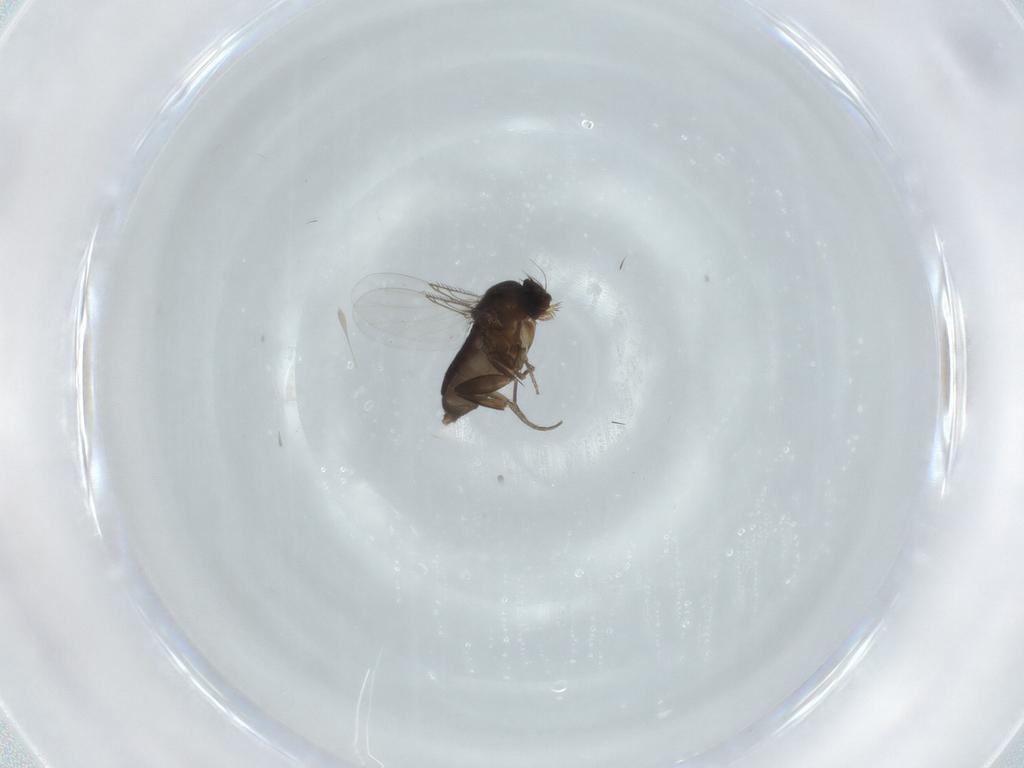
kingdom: Animalia
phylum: Arthropoda
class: Insecta
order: Diptera
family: Phoridae
